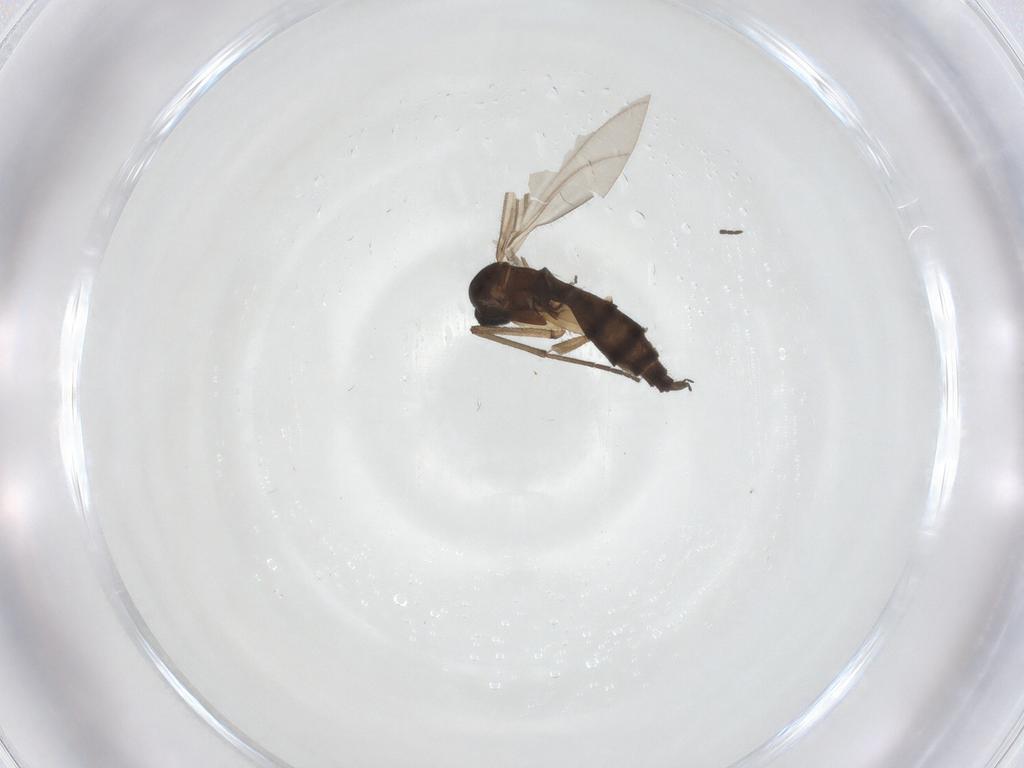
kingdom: Animalia
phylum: Arthropoda
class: Insecta
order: Diptera
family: Sciaridae
